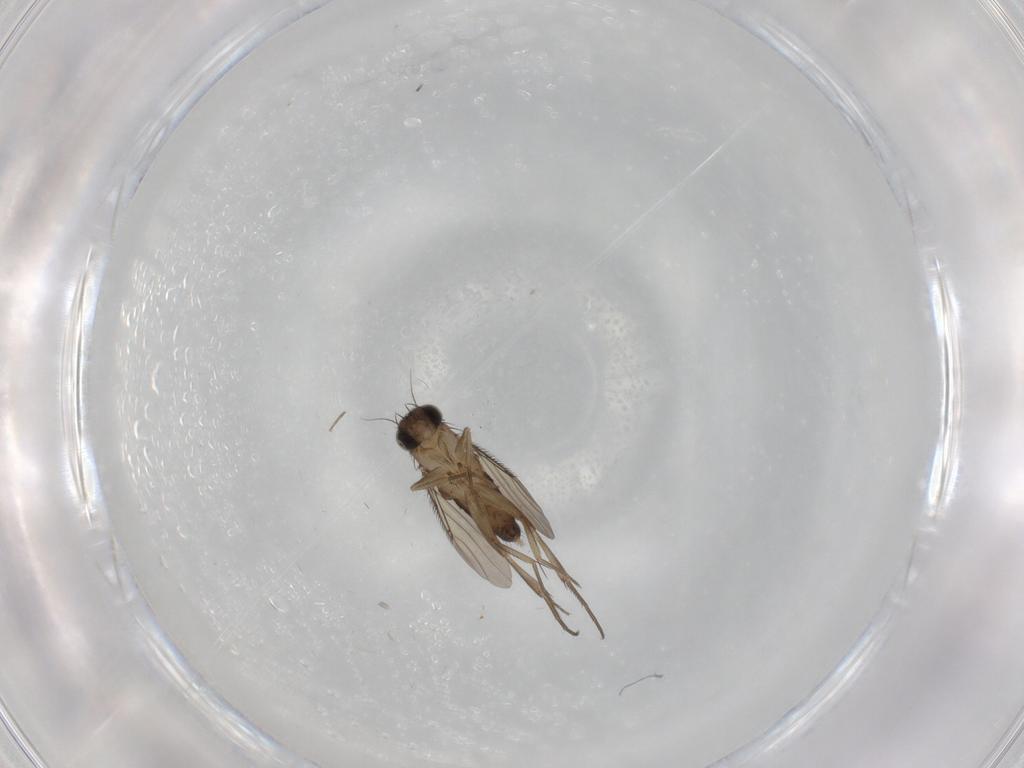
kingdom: Animalia
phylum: Arthropoda
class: Insecta
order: Diptera
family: Phoridae
